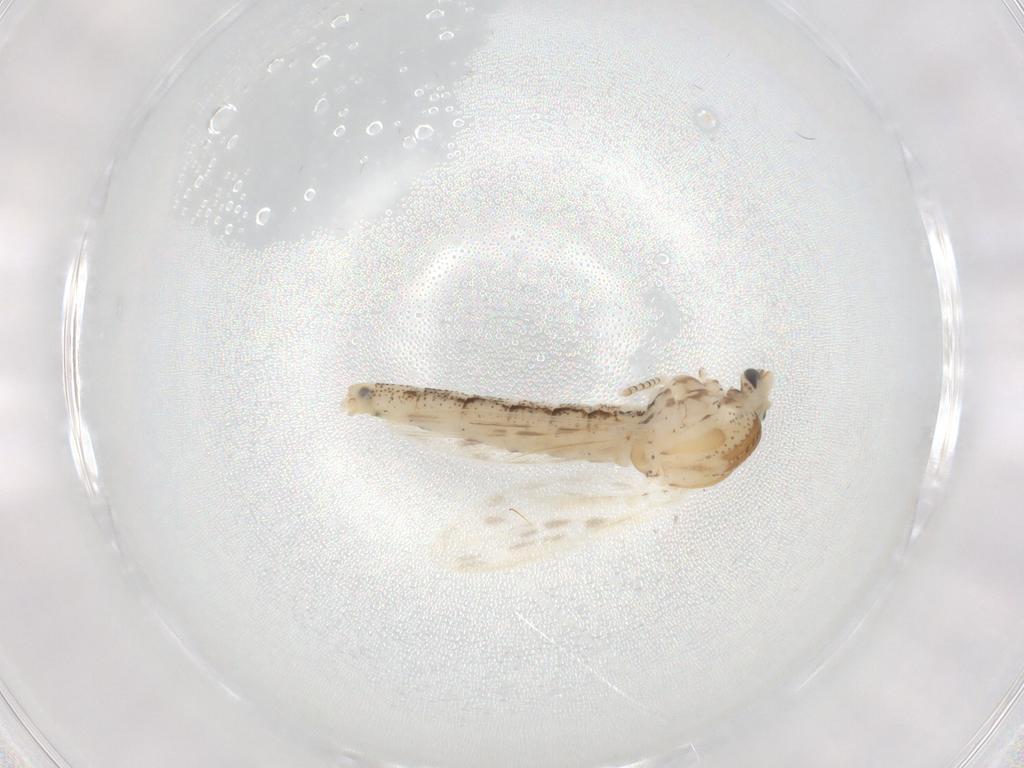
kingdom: Animalia
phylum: Arthropoda
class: Insecta
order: Diptera
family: Chaoboridae
